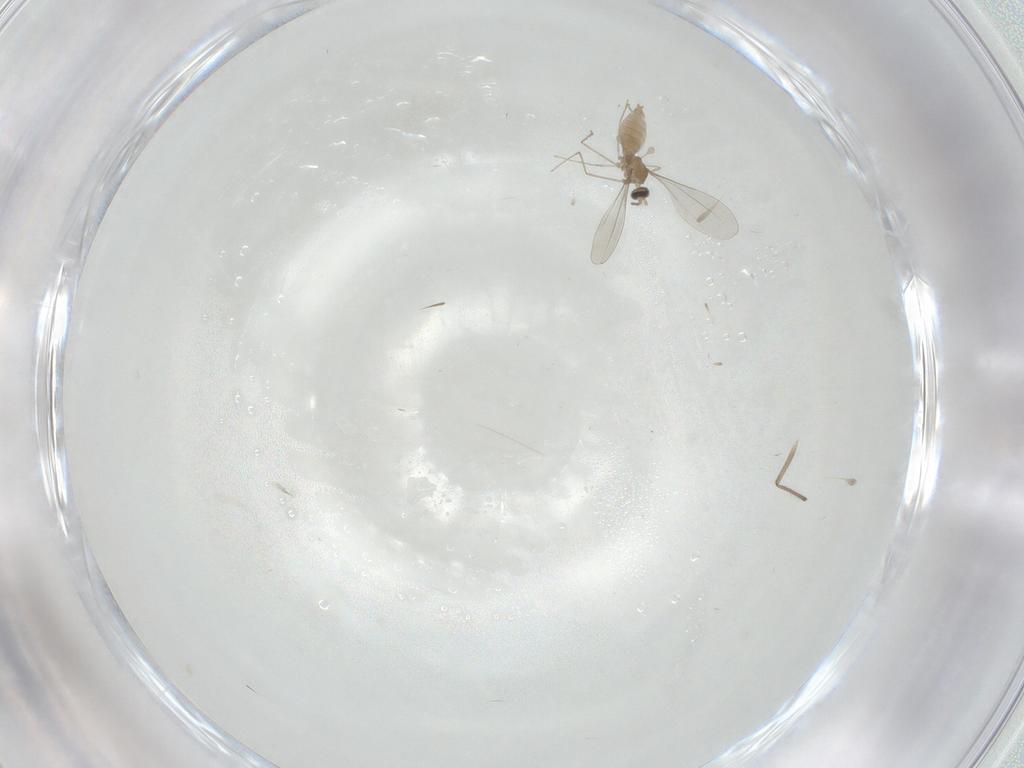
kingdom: Animalia
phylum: Arthropoda
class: Insecta
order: Diptera
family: Chironomidae
